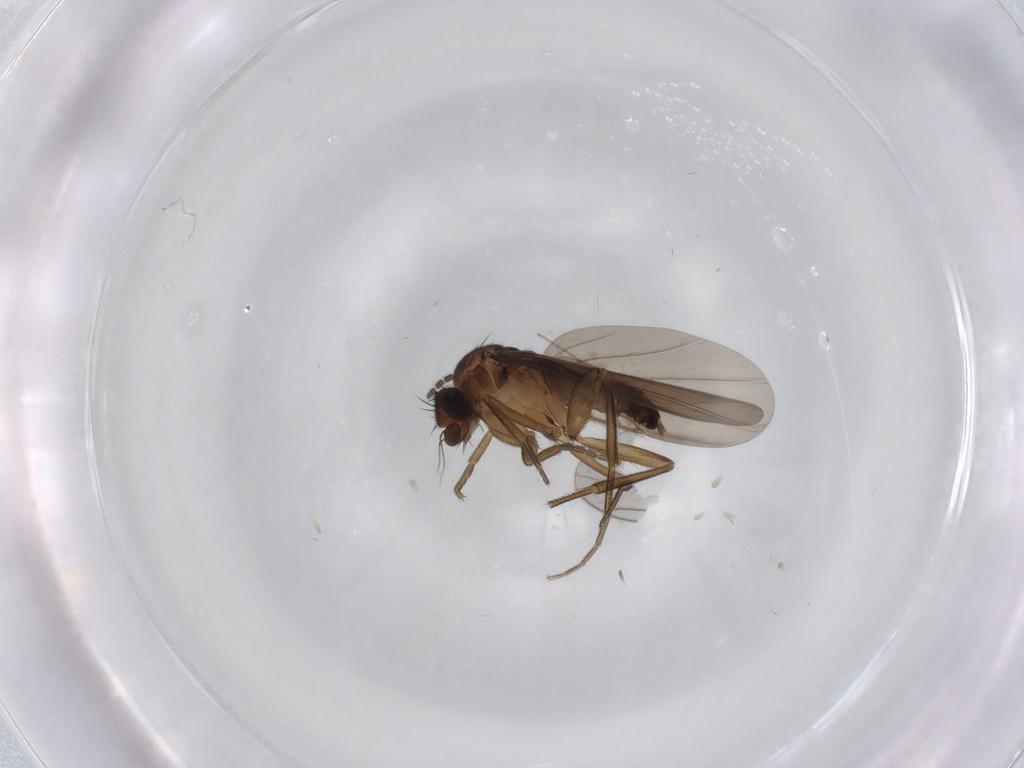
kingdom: Animalia
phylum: Arthropoda
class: Insecta
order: Diptera
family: Phoridae
